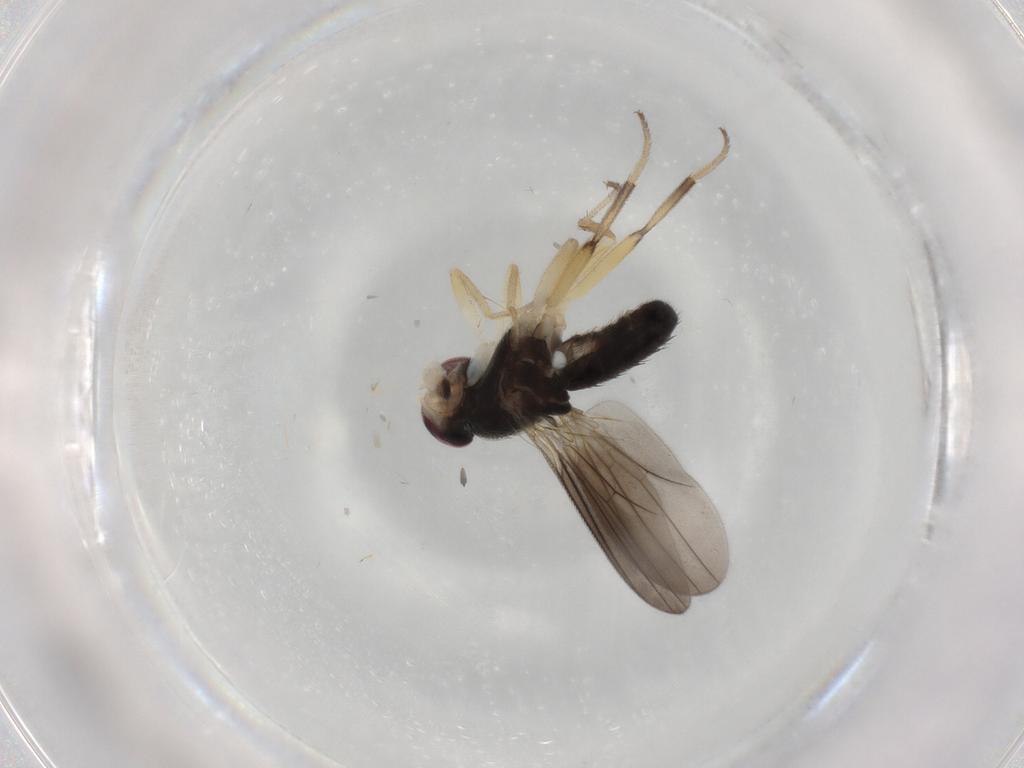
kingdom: Animalia
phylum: Arthropoda
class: Insecta
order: Diptera
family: Clusiidae
